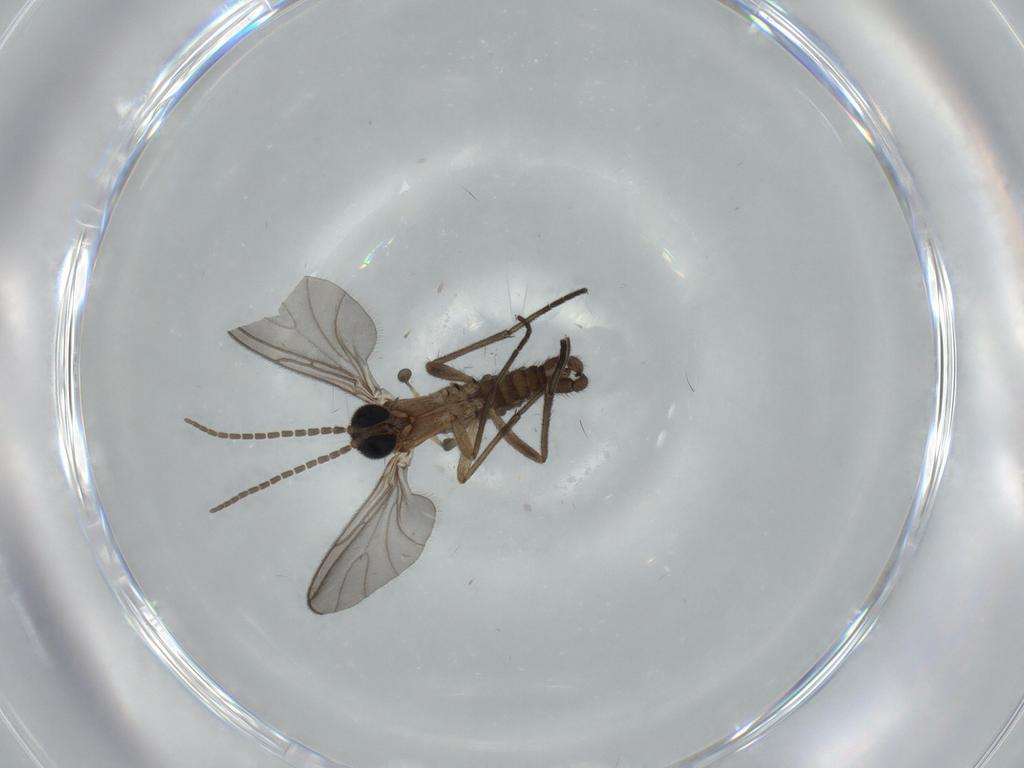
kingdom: Animalia
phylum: Arthropoda
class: Insecta
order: Diptera
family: Sciaridae
